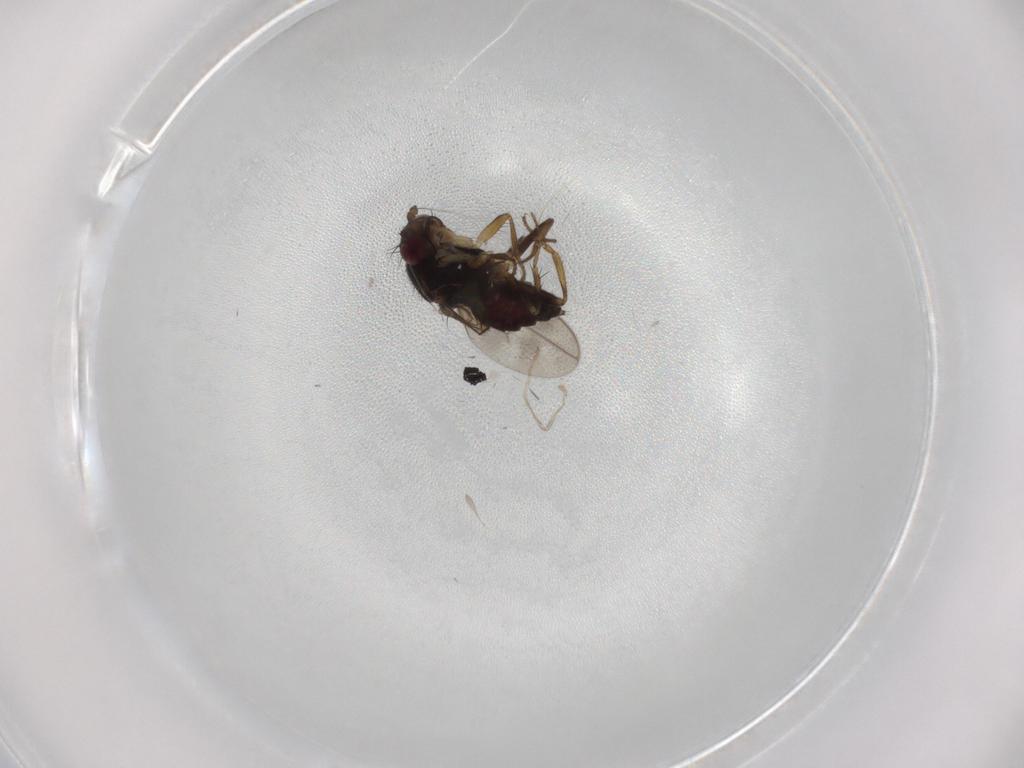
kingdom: Animalia
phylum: Arthropoda
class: Insecta
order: Diptera
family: Sphaeroceridae
